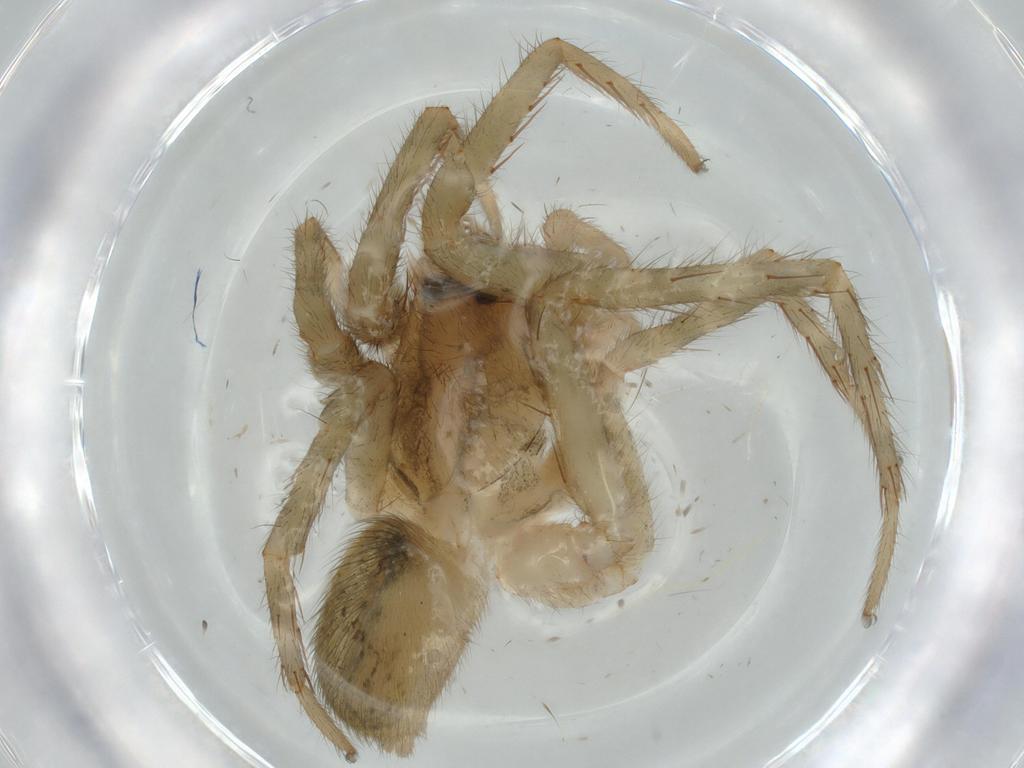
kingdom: Animalia
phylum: Arthropoda
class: Arachnida
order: Araneae
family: Ctenidae
